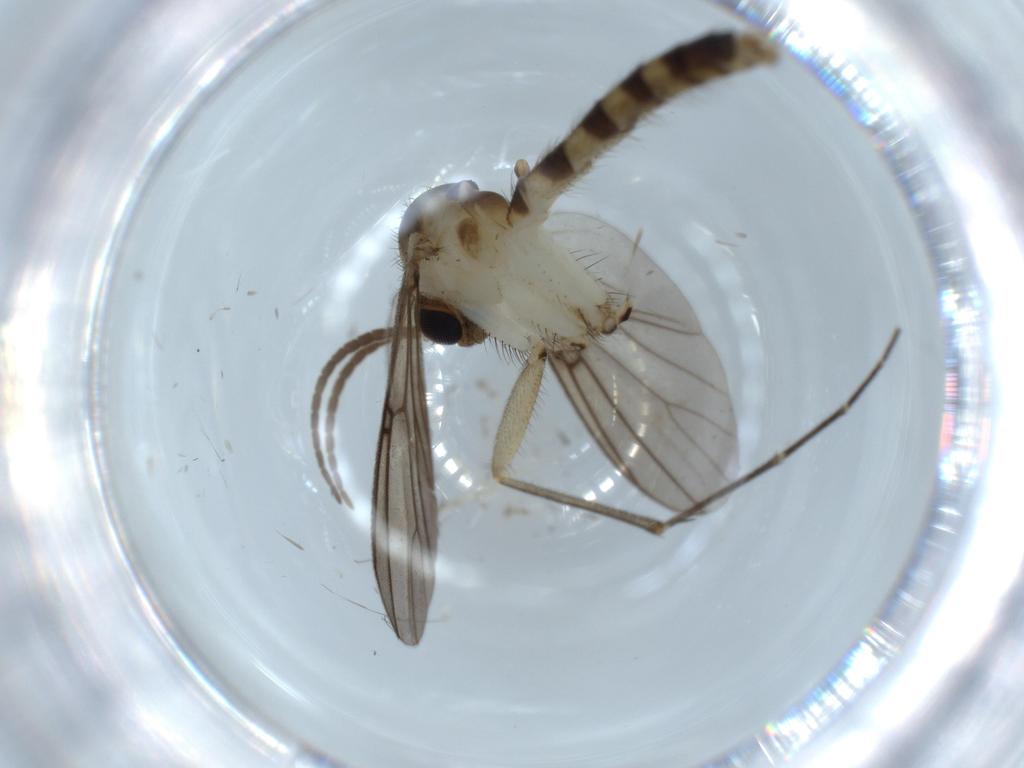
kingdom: Animalia
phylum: Arthropoda
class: Insecta
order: Diptera
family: Chironomidae
